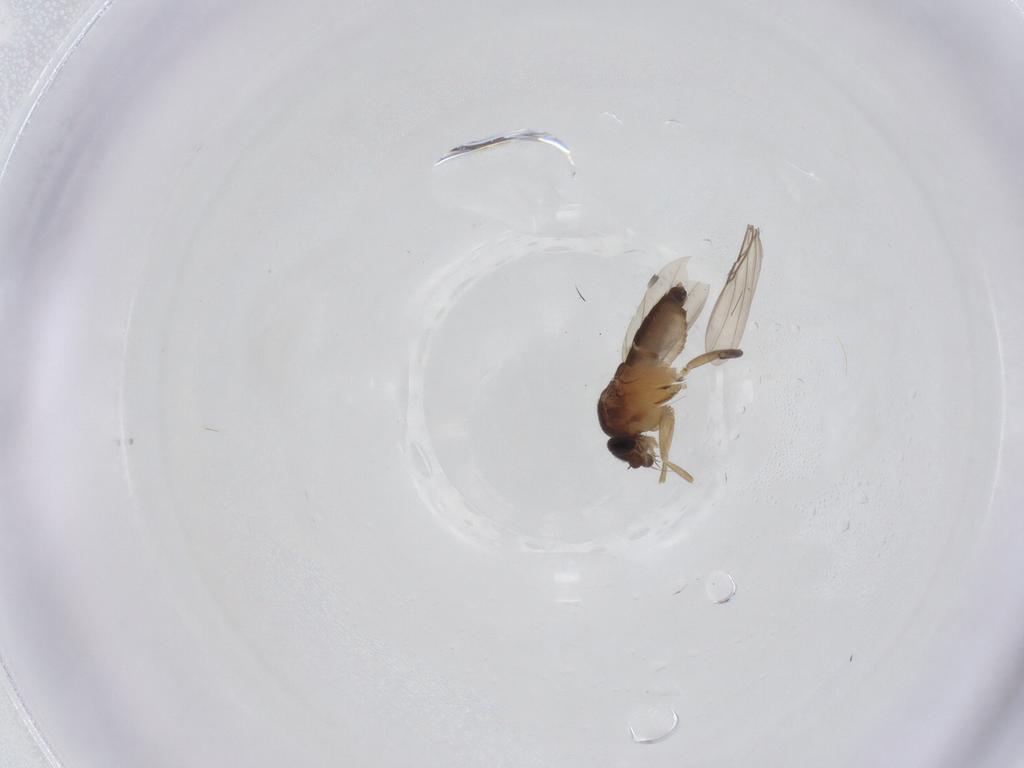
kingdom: Animalia
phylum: Arthropoda
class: Insecta
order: Diptera
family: Phoridae
